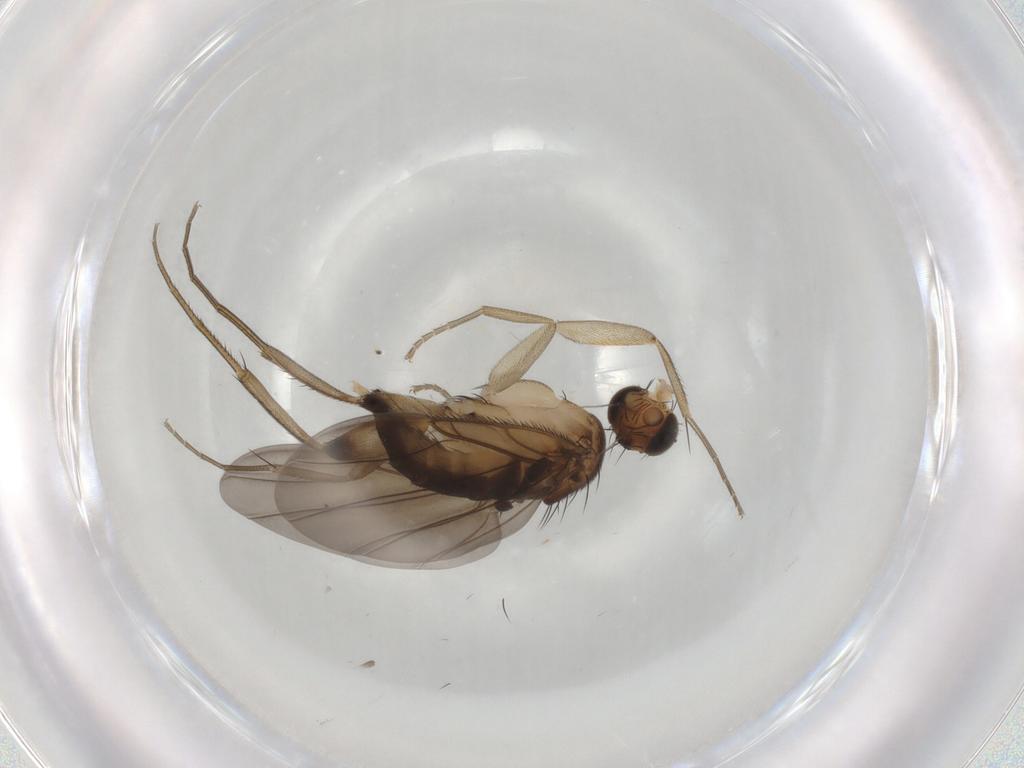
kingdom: Animalia
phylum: Arthropoda
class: Insecta
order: Diptera
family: Phoridae
